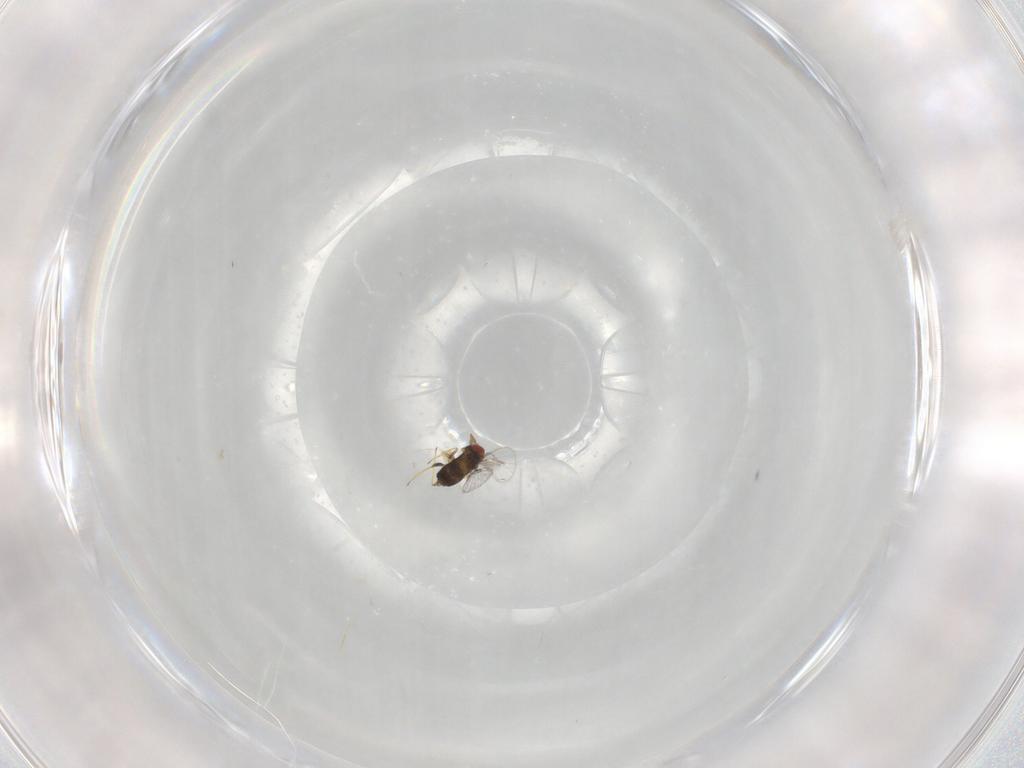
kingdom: Animalia
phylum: Arthropoda
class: Insecta
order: Hymenoptera
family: Trichogrammatidae
